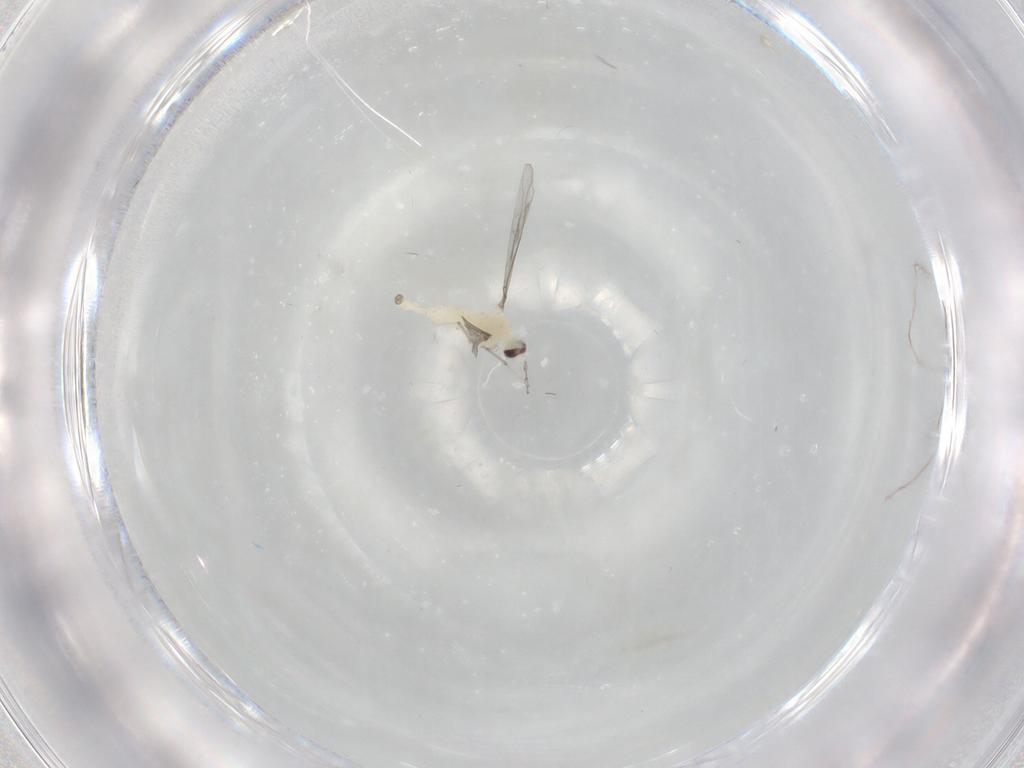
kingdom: Animalia
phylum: Arthropoda
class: Insecta
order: Diptera
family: Cecidomyiidae
